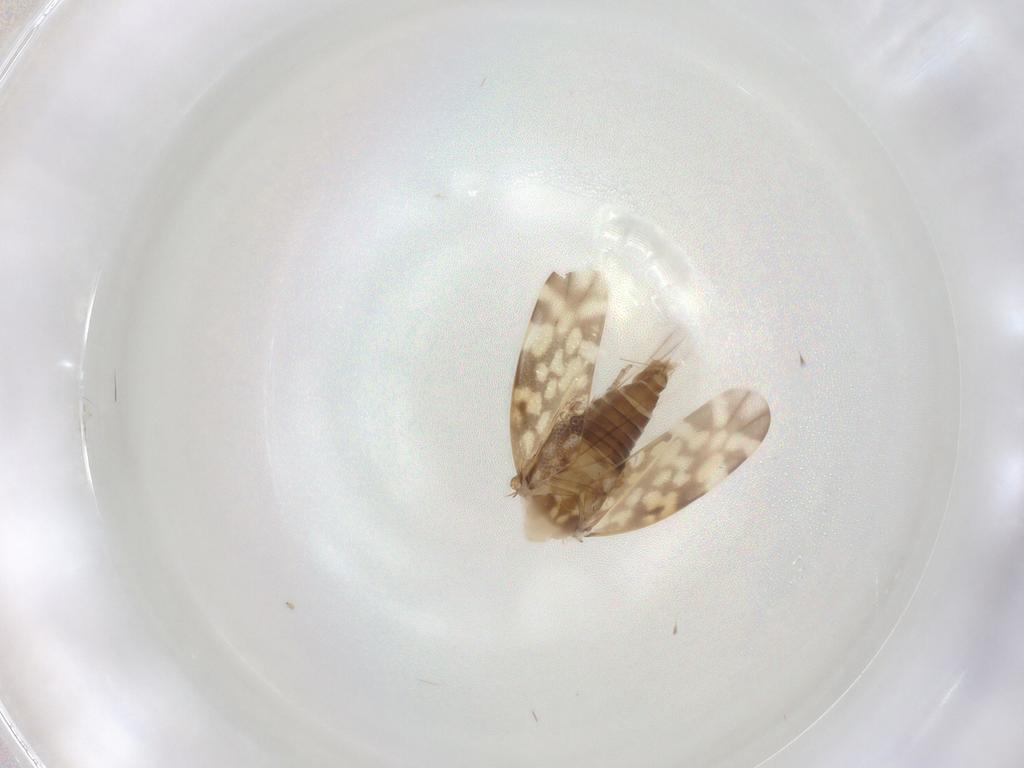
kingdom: Animalia
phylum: Arthropoda
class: Insecta
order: Hemiptera
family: Cicadellidae
